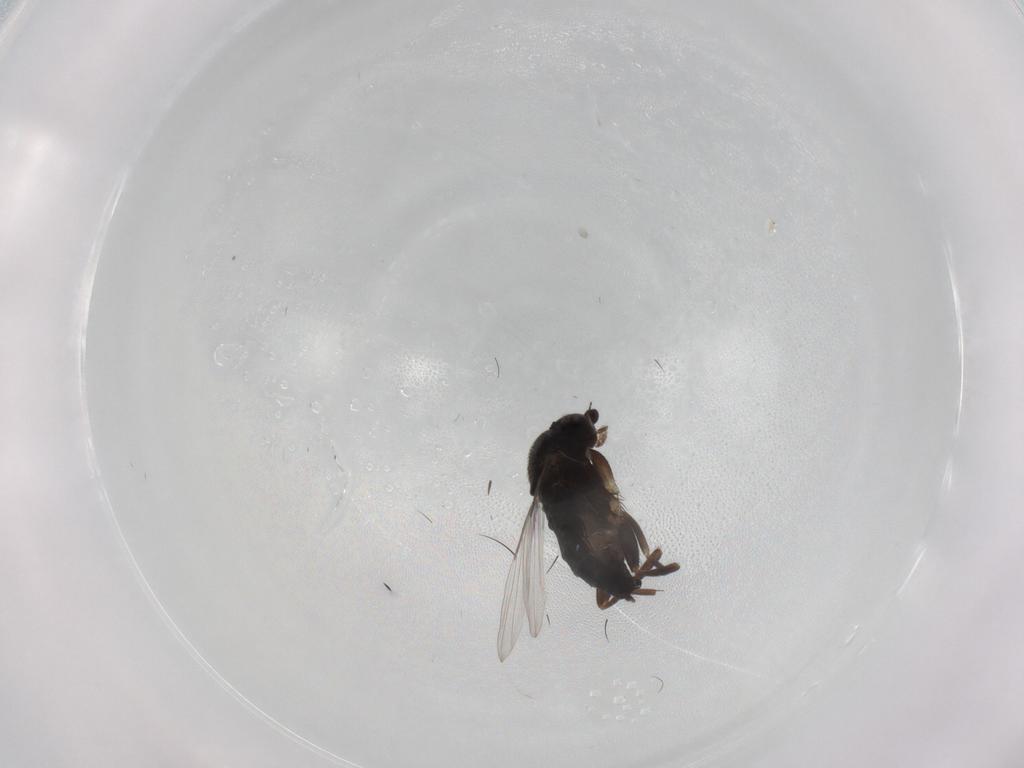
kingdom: Animalia
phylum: Arthropoda
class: Insecta
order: Diptera
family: Phoridae
